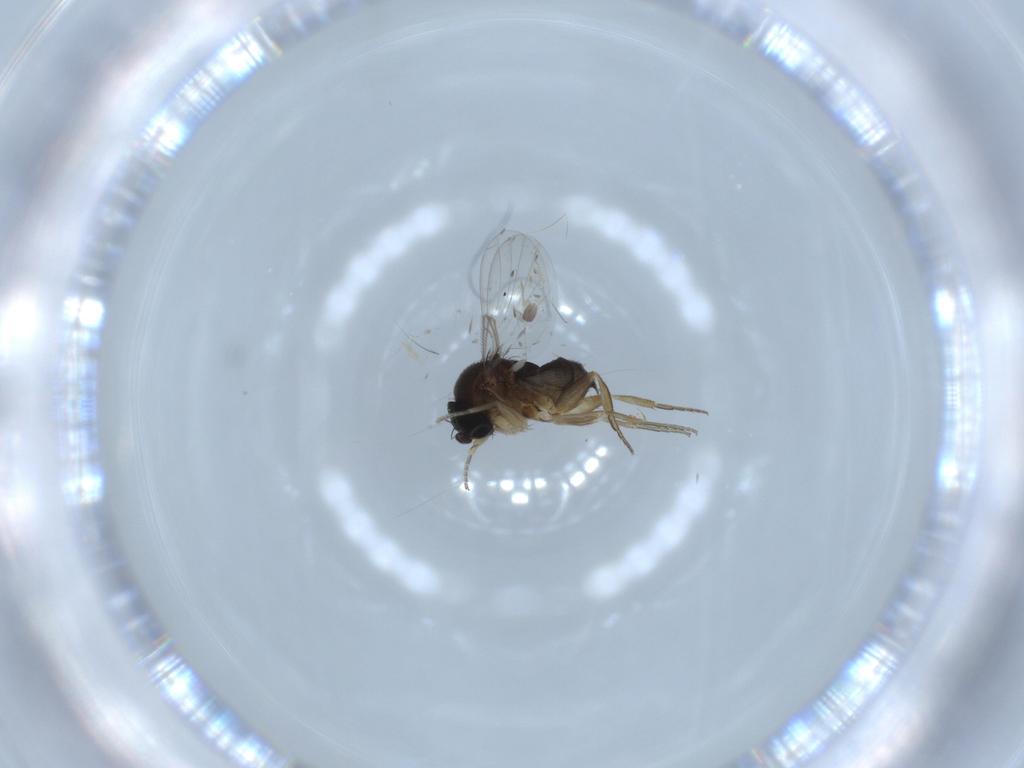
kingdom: Animalia
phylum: Arthropoda
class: Insecta
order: Diptera
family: Phoridae
